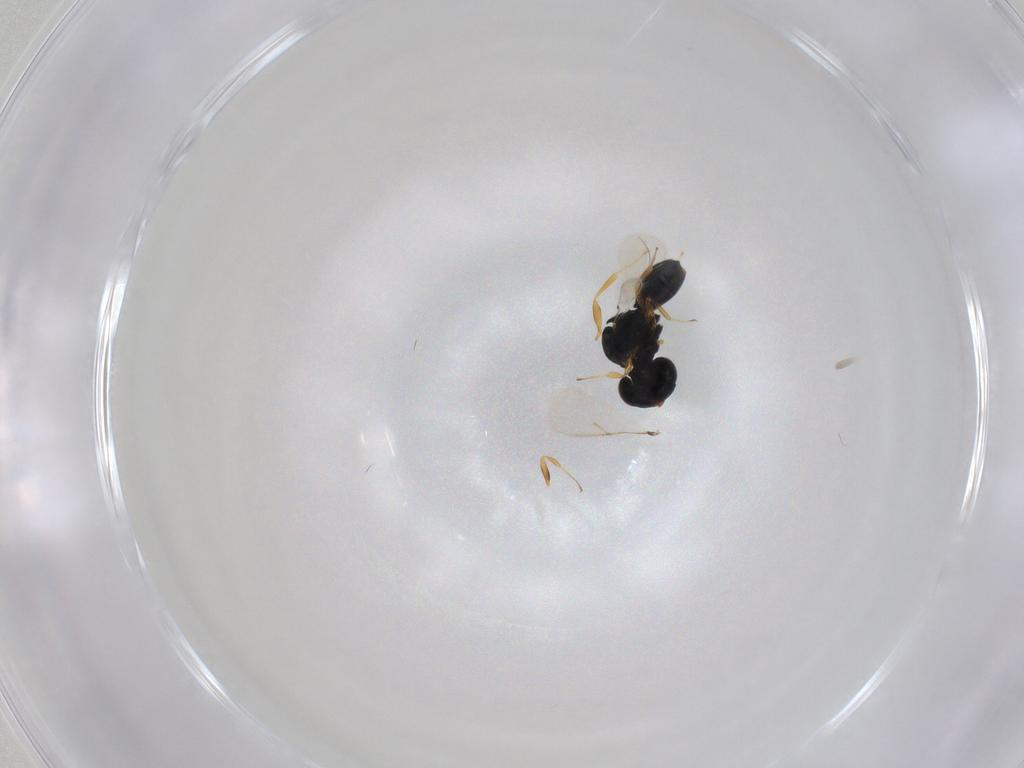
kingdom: Animalia
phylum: Arthropoda
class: Insecta
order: Hymenoptera
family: Scelionidae
